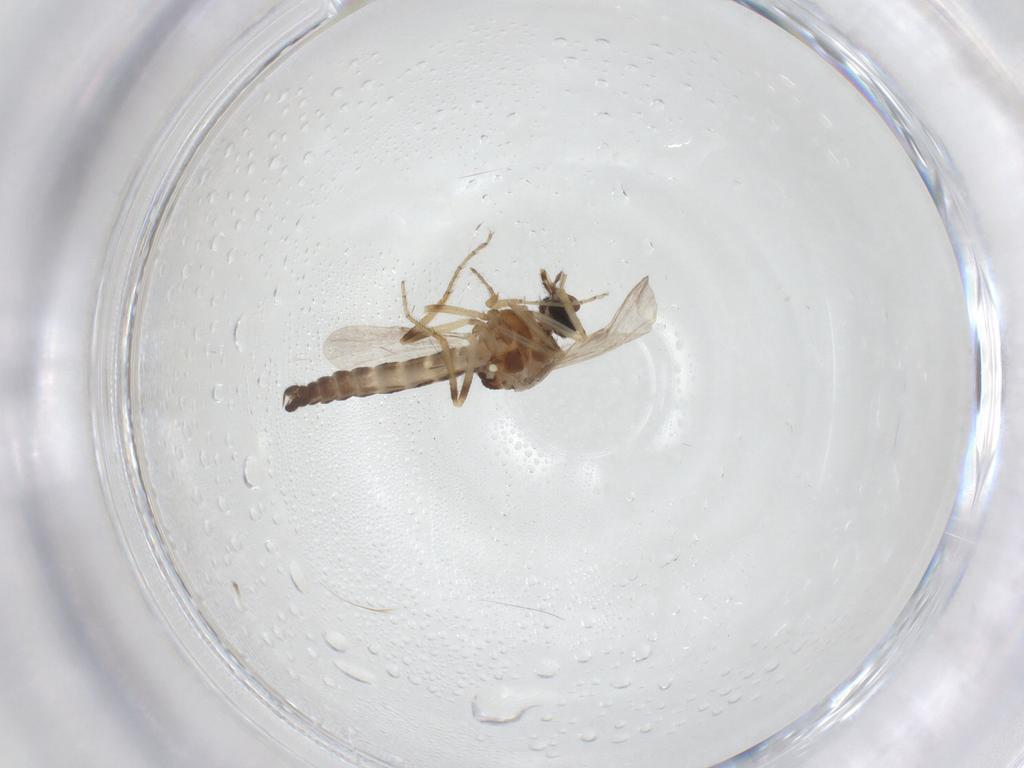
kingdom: Animalia
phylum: Arthropoda
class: Insecta
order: Diptera
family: Ceratopogonidae
